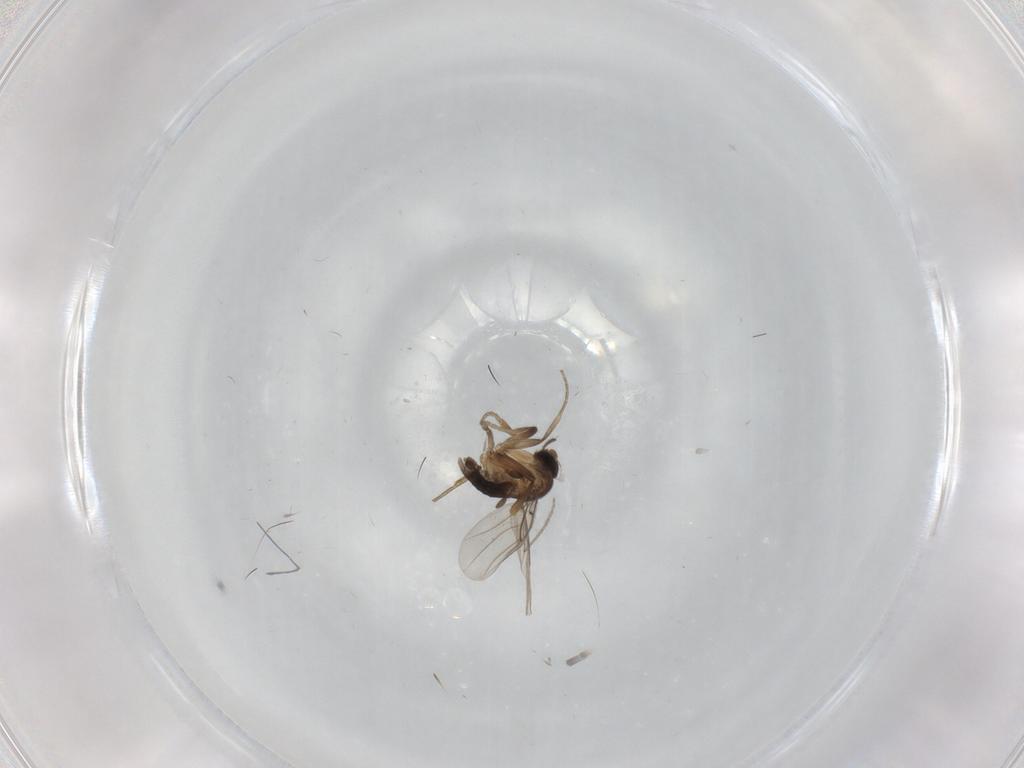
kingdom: Animalia
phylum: Arthropoda
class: Insecta
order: Diptera
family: Chironomidae
